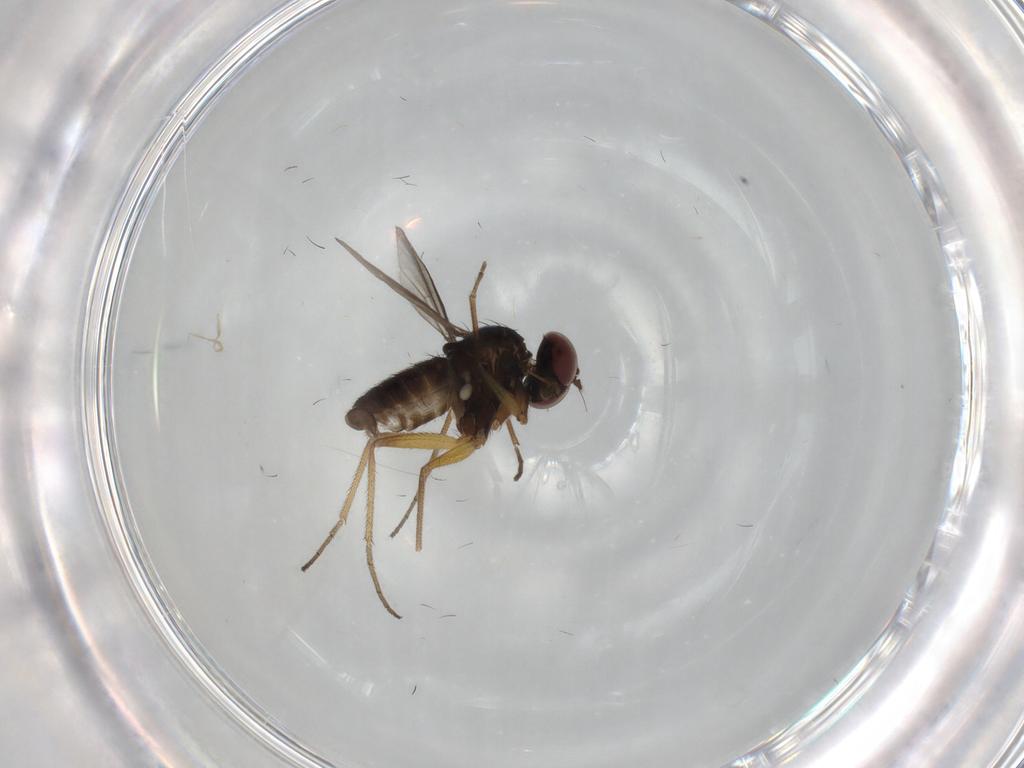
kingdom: Animalia
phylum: Arthropoda
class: Insecta
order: Diptera
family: Dolichopodidae
